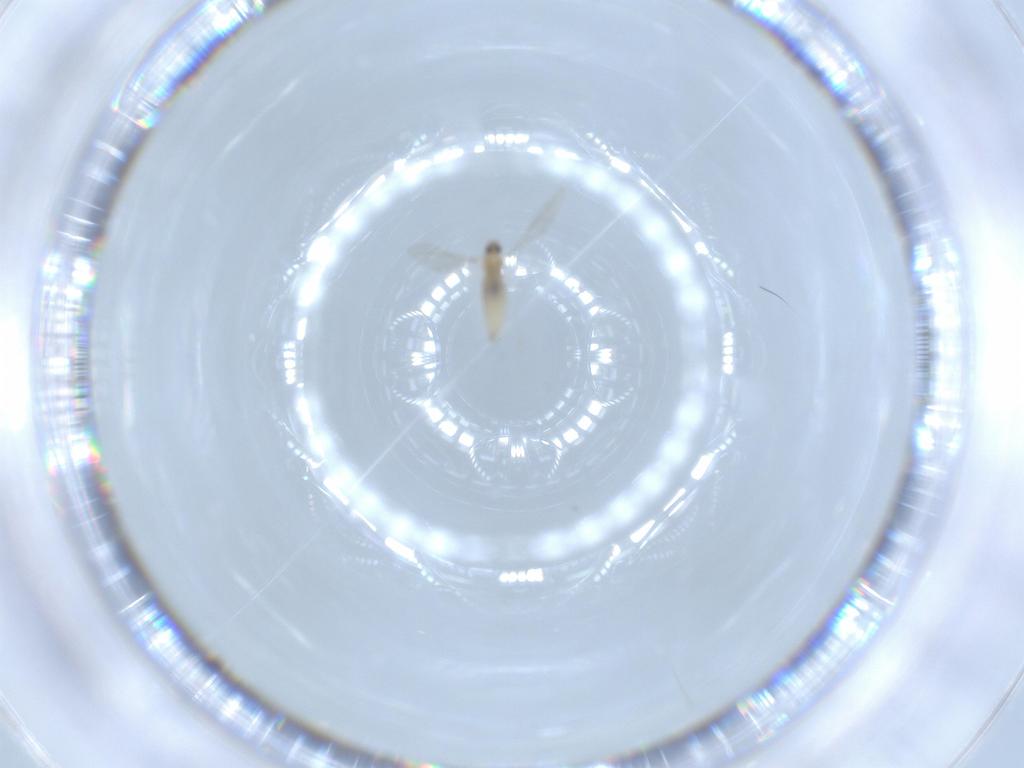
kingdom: Animalia
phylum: Arthropoda
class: Insecta
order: Diptera
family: Cecidomyiidae
